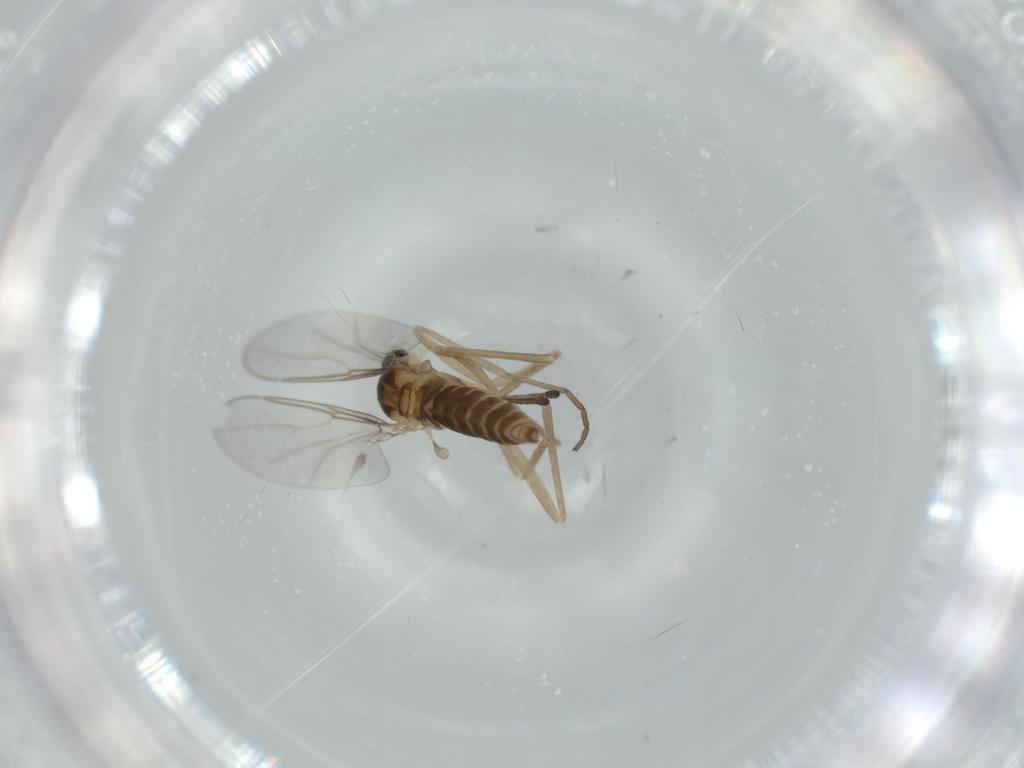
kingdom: Animalia
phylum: Arthropoda
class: Insecta
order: Diptera
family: Cecidomyiidae
